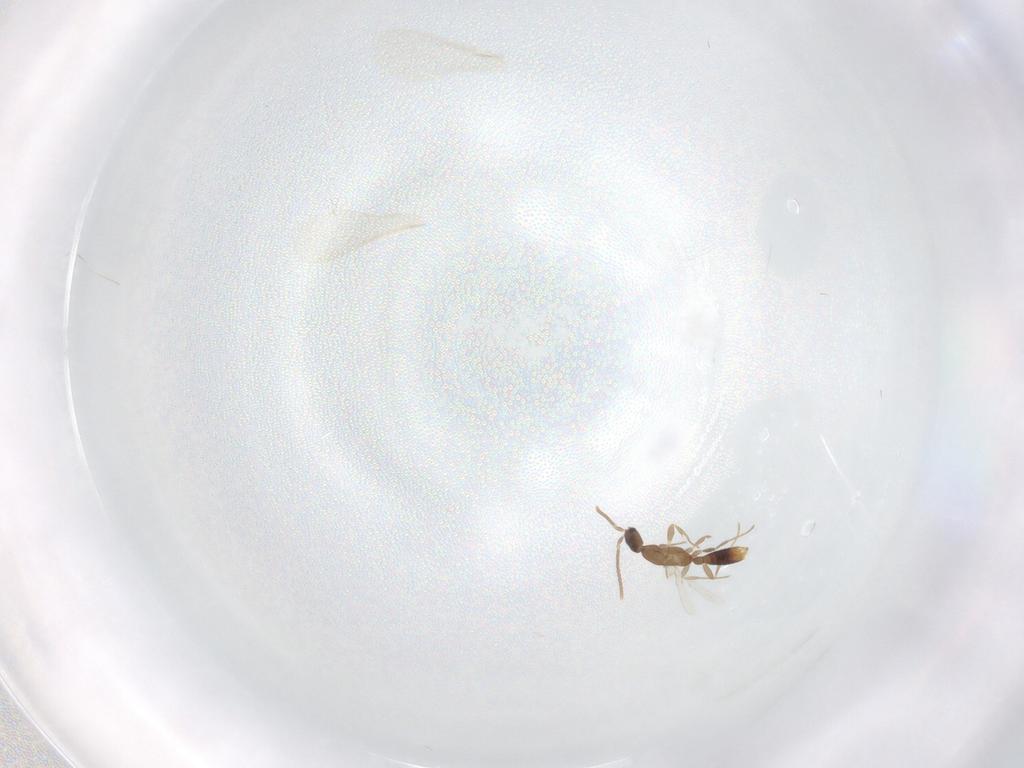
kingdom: Animalia
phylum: Arthropoda
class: Insecta
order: Hymenoptera
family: Formicidae
